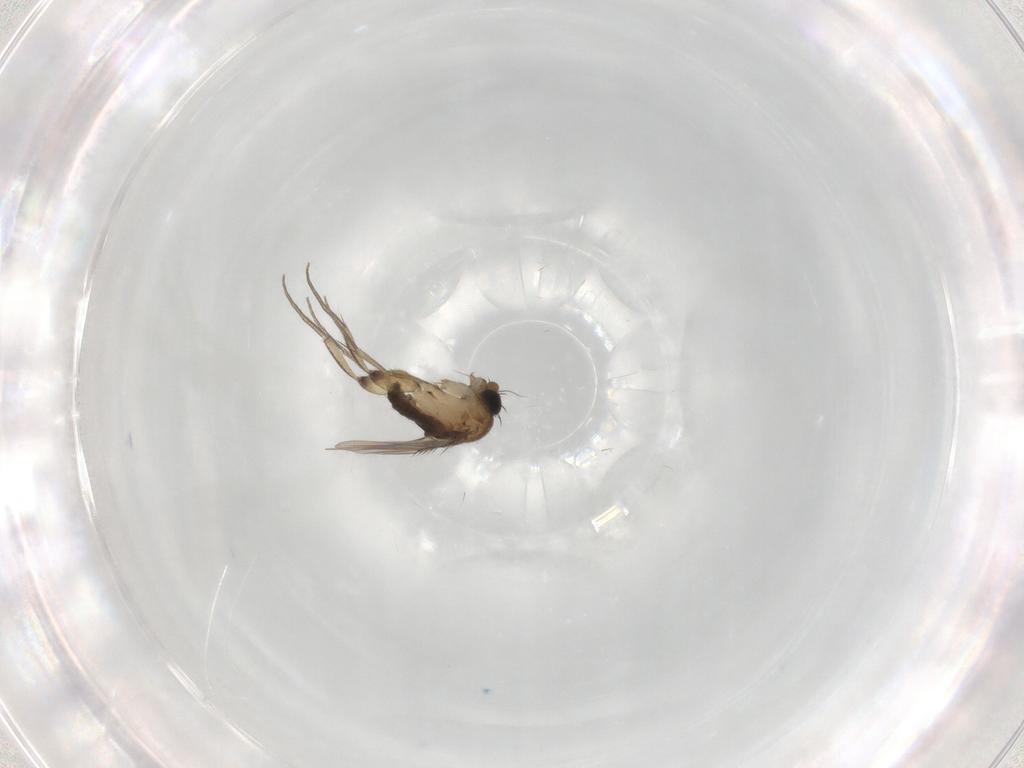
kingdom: Animalia
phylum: Arthropoda
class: Insecta
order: Diptera
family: Phoridae
